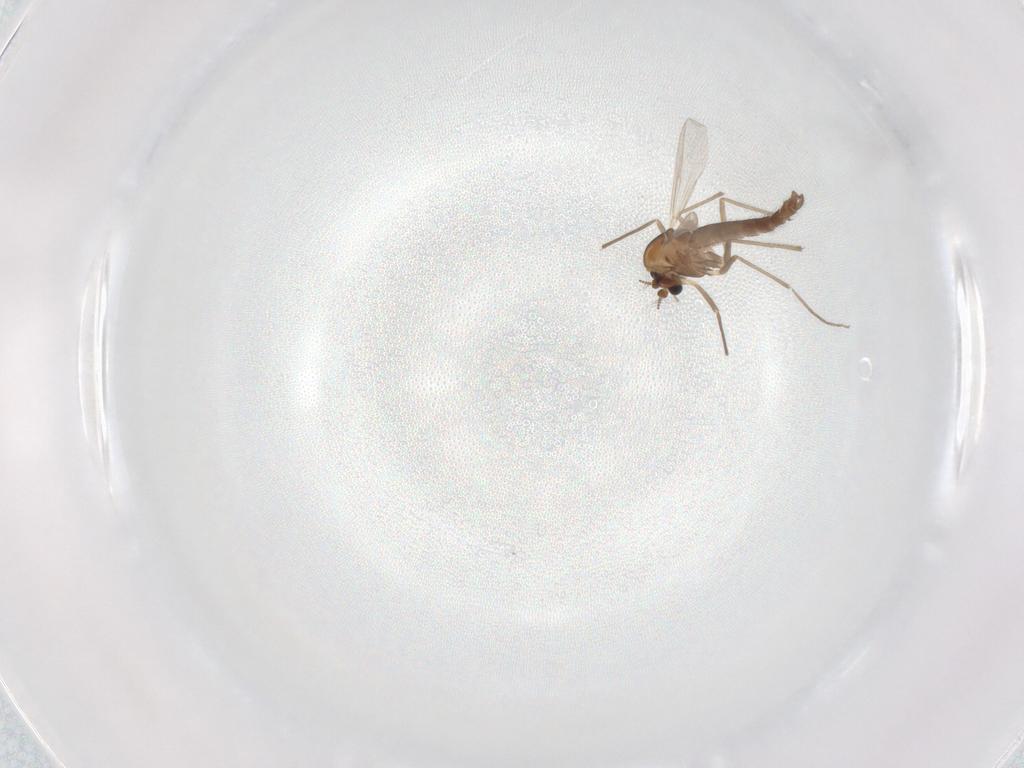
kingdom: Animalia
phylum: Arthropoda
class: Insecta
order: Diptera
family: Chironomidae
